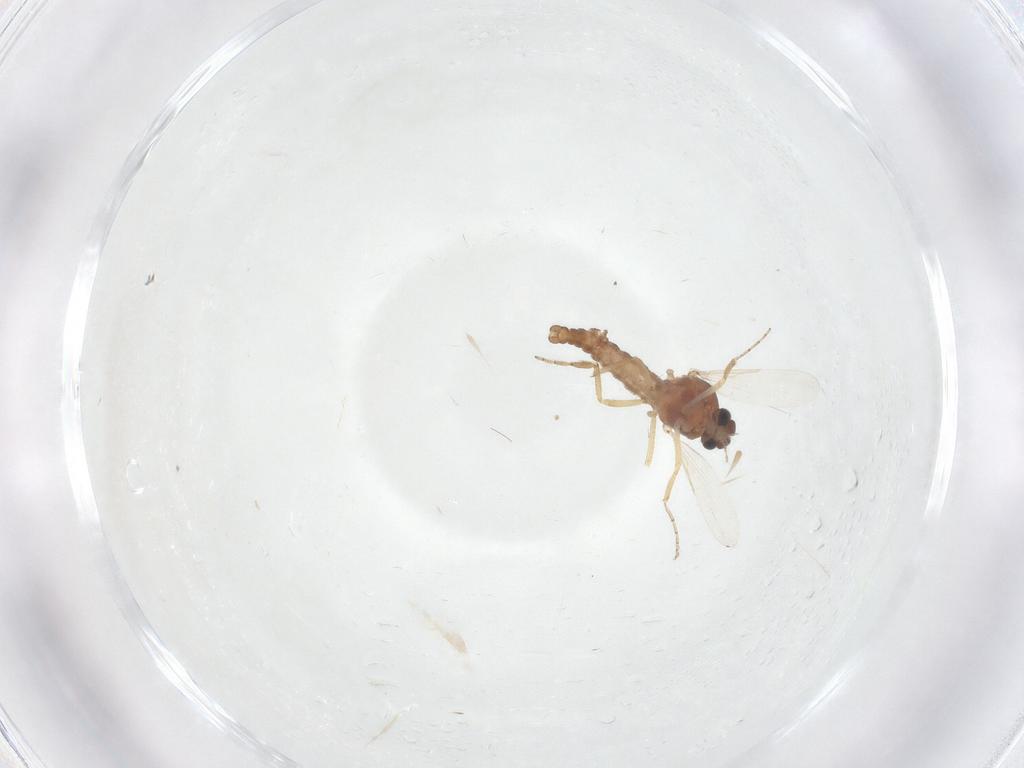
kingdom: Animalia
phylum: Arthropoda
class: Insecta
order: Diptera
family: Ceratopogonidae
